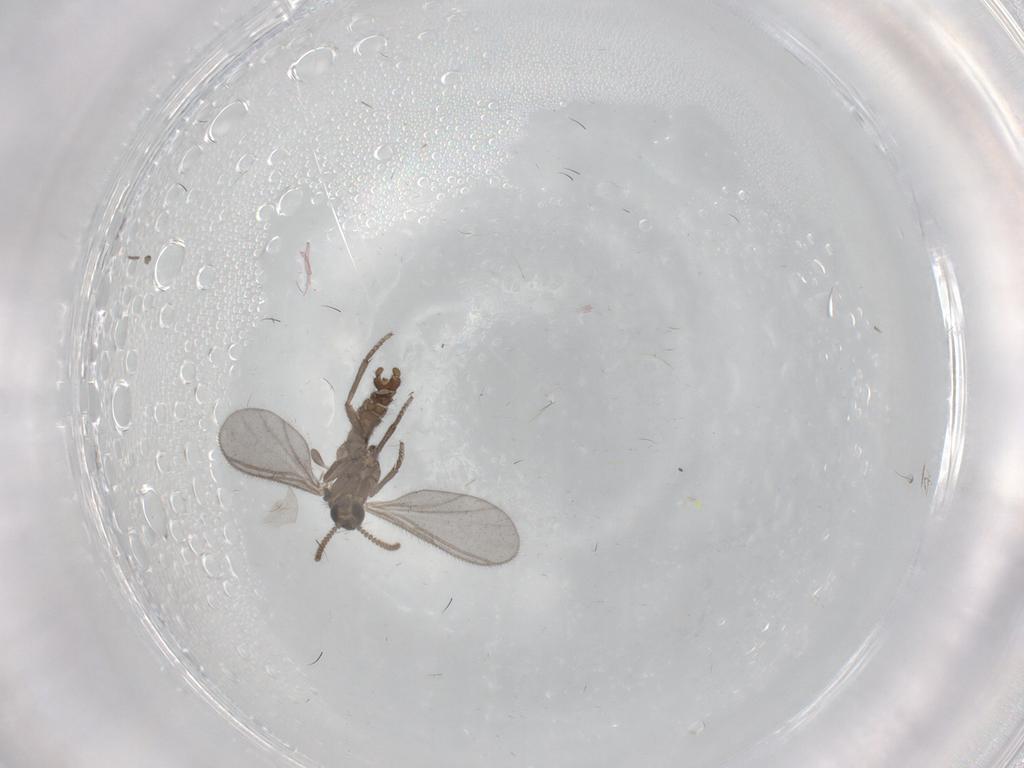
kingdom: Animalia
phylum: Arthropoda
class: Insecta
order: Diptera
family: Sciaridae
